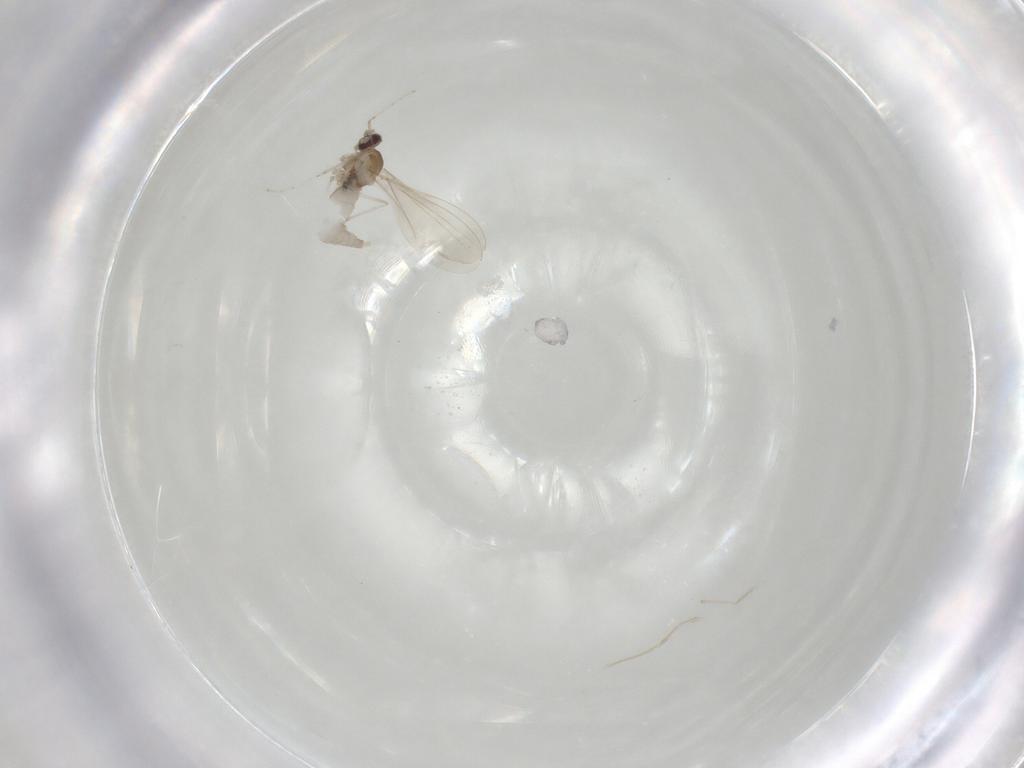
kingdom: Animalia
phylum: Arthropoda
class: Insecta
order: Diptera
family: Cecidomyiidae
